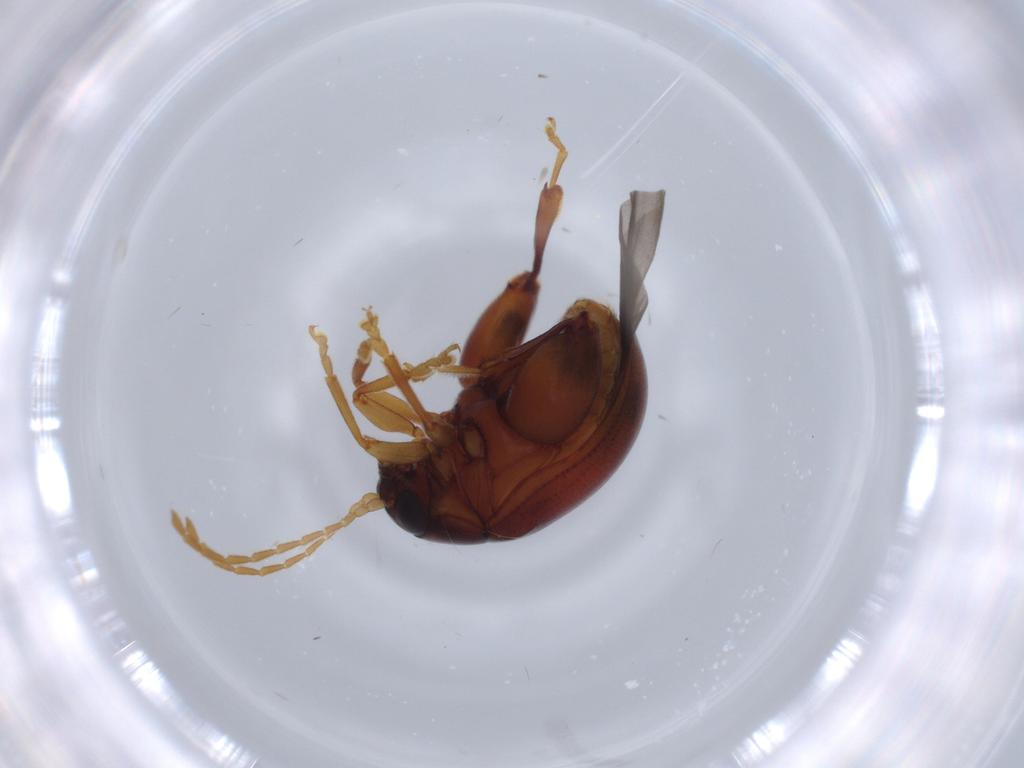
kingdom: Animalia
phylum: Arthropoda
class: Insecta
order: Coleoptera
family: Chrysomelidae
